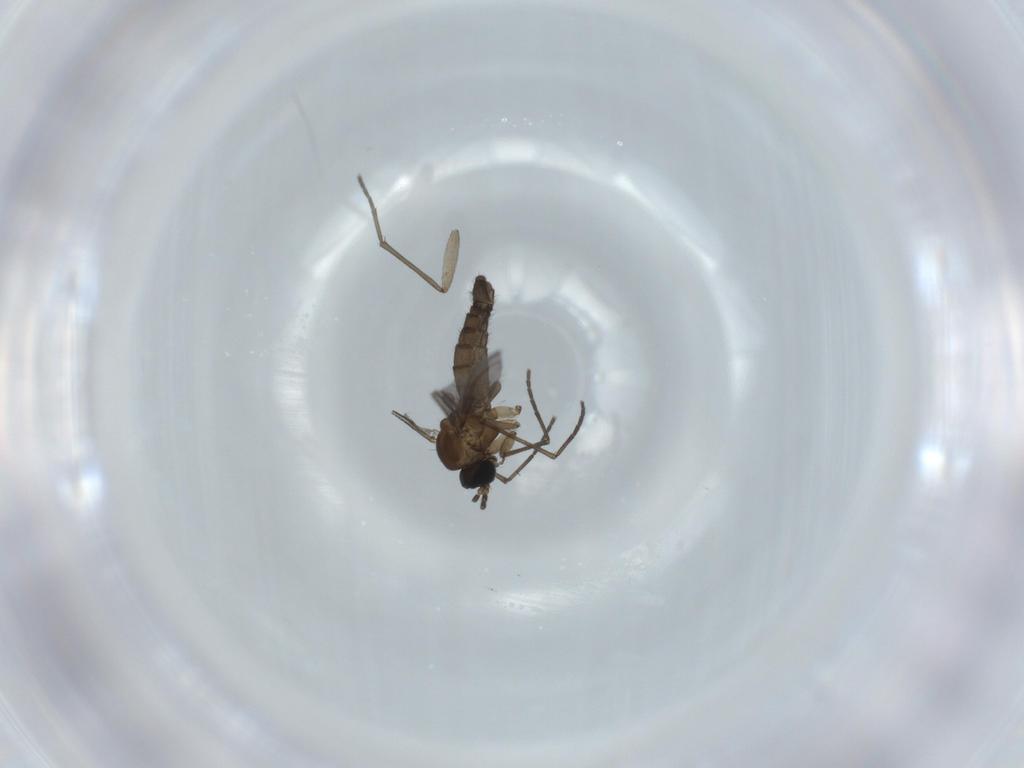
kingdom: Animalia
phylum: Arthropoda
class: Insecta
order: Diptera
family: Sciaridae
